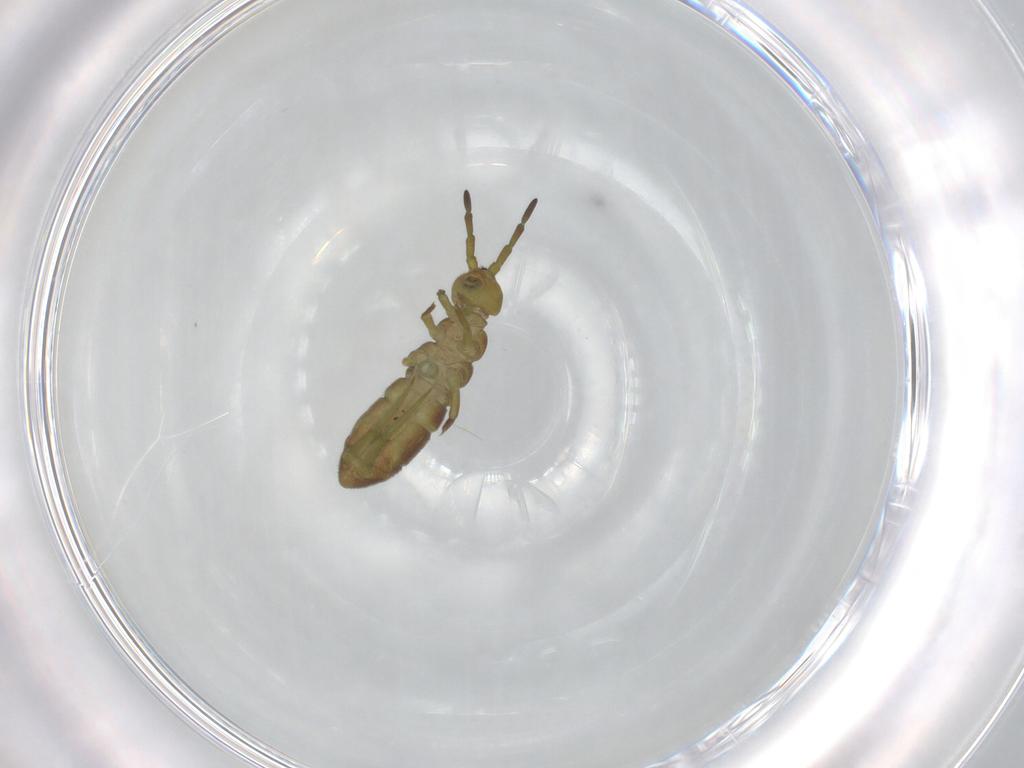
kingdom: Animalia
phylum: Arthropoda
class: Collembola
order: Entomobryomorpha
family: Isotomidae
